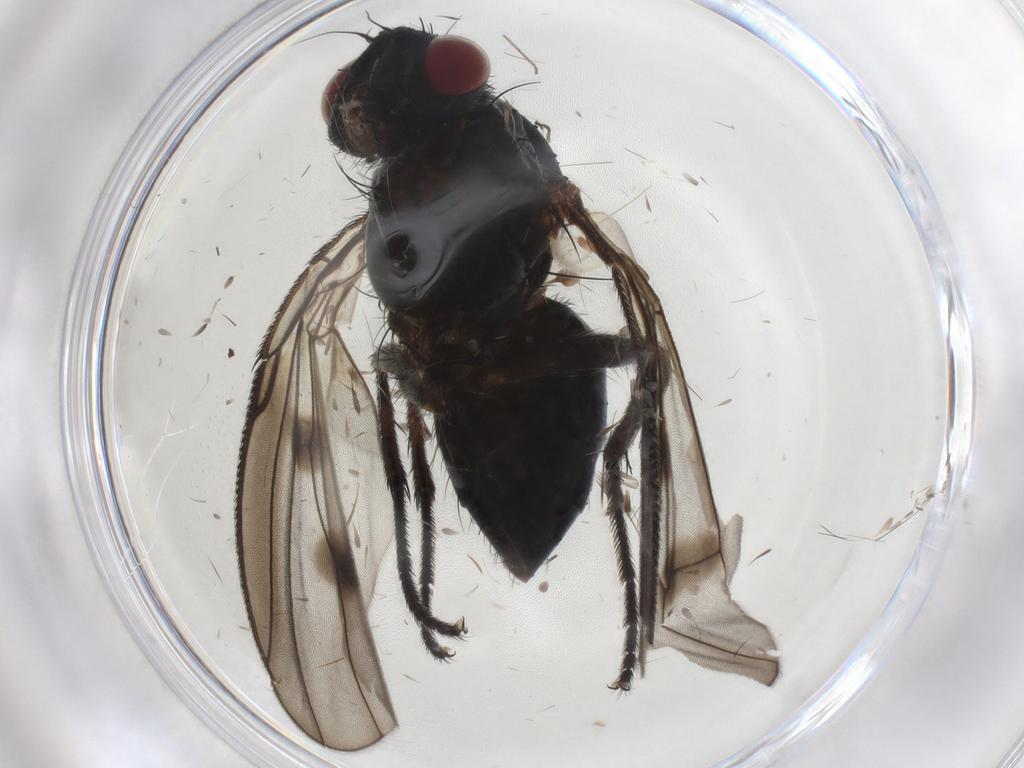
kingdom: Animalia
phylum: Arthropoda
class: Insecta
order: Diptera
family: Muscidae
